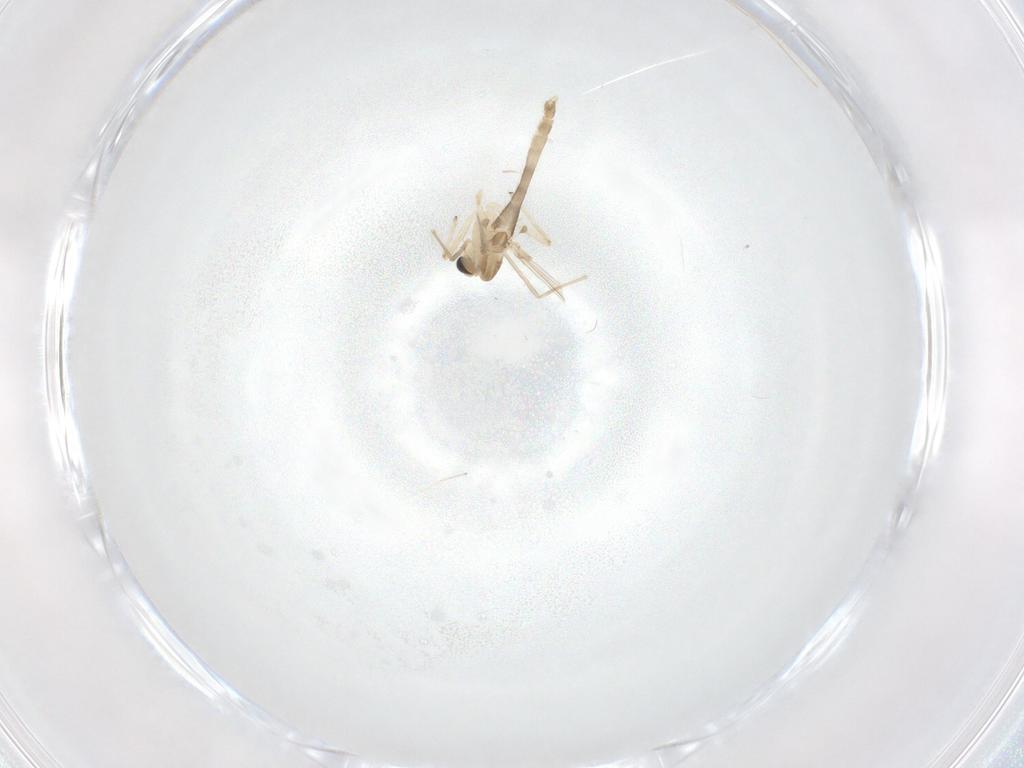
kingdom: Animalia
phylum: Arthropoda
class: Insecta
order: Diptera
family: Chironomidae
